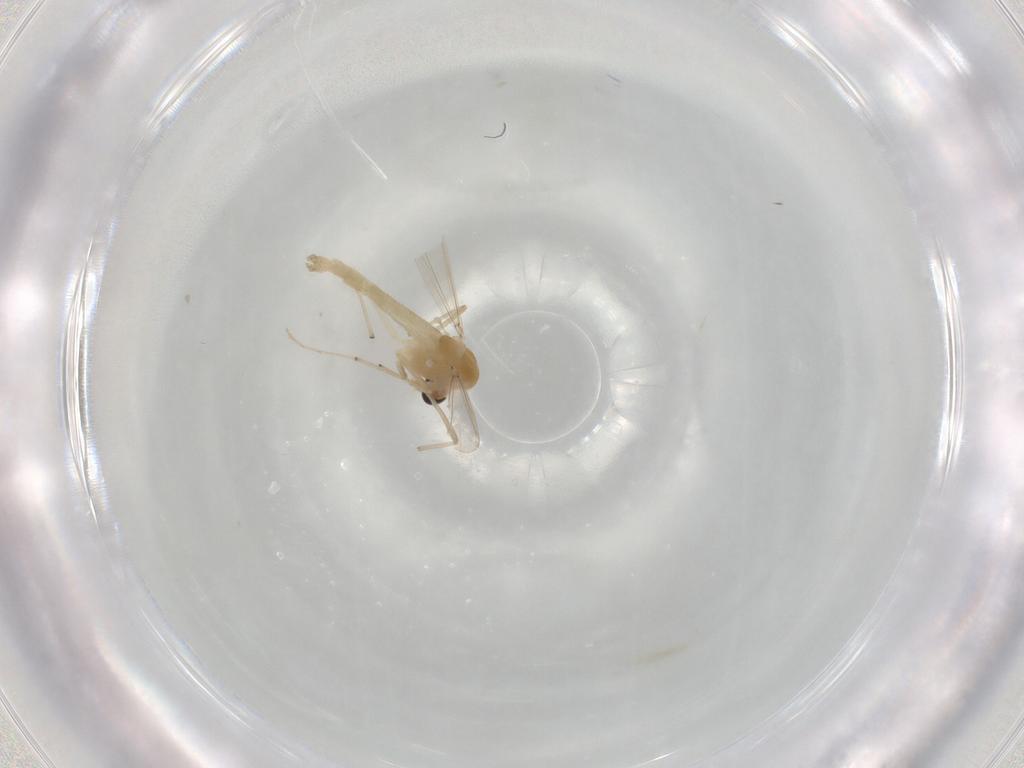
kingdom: Animalia
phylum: Arthropoda
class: Insecta
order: Diptera
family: Chironomidae
